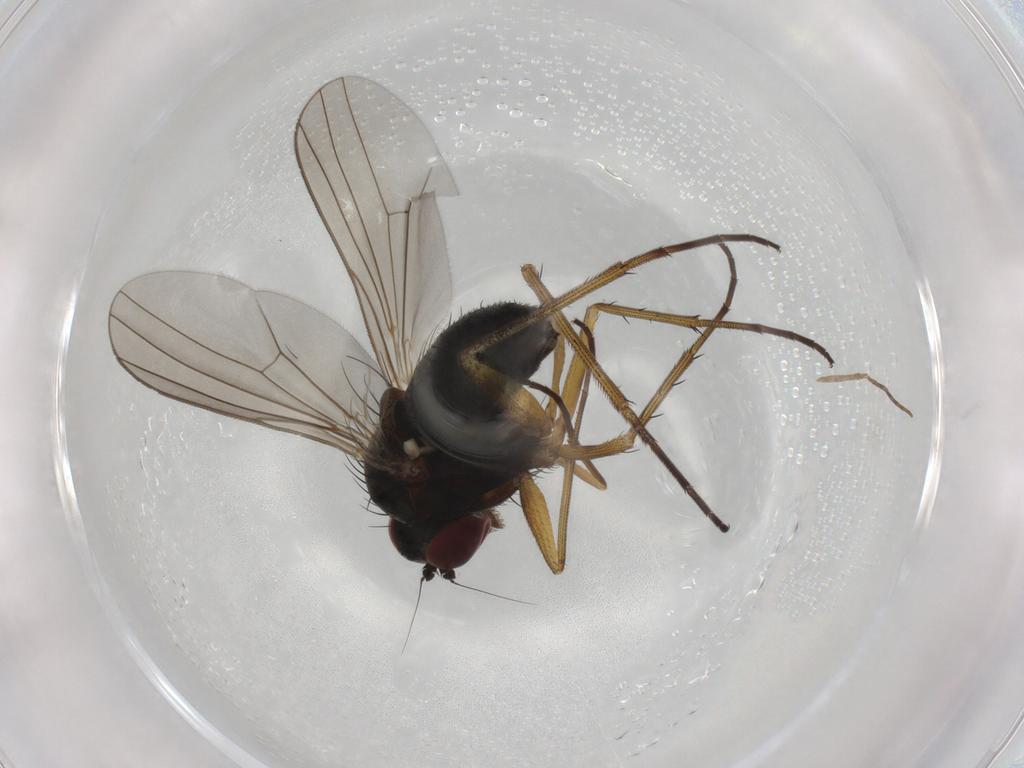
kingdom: Animalia
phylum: Arthropoda
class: Insecta
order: Diptera
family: Dolichopodidae
